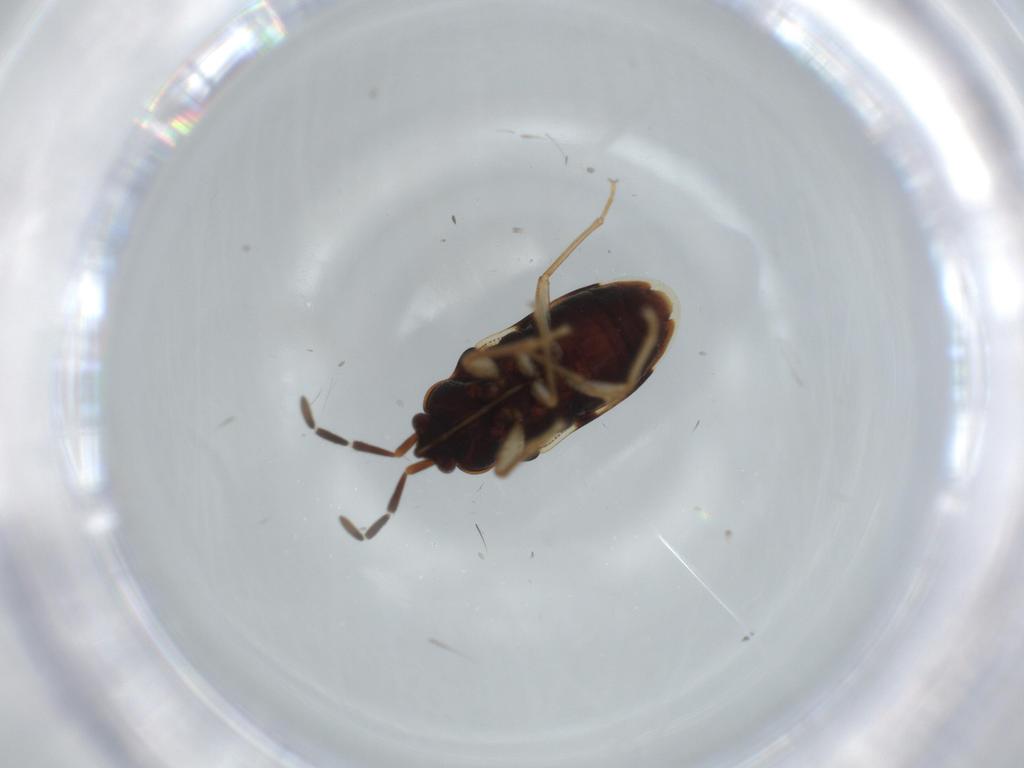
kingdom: Animalia
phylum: Arthropoda
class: Insecta
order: Hemiptera
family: Rhyparochromidae
